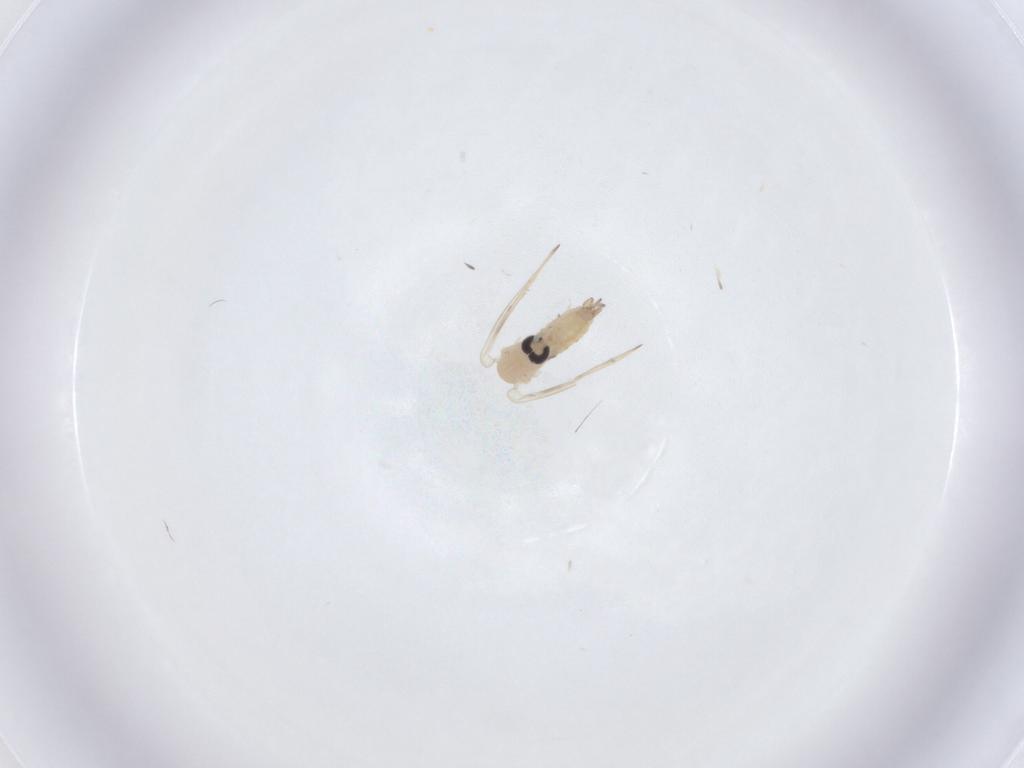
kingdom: Animalia
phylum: Arthropoda
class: Insecta
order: Diptera
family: Psychodidae
